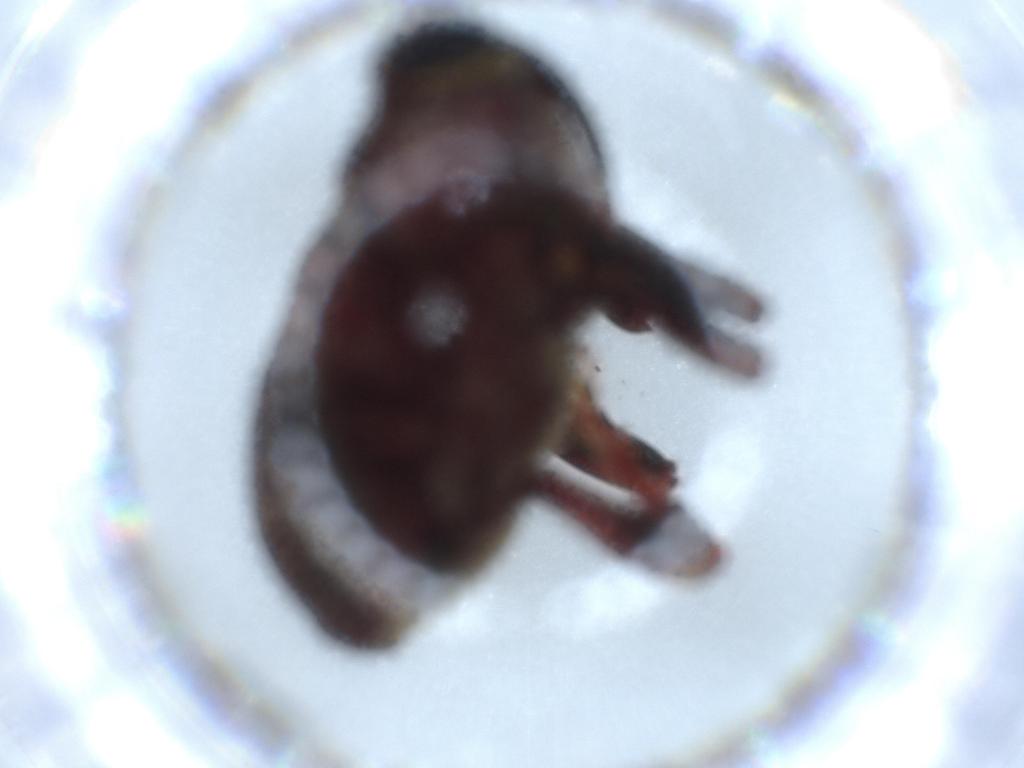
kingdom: Animalia
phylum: Arthropoda
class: Insecta
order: Coleoptera
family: Curculionidae
